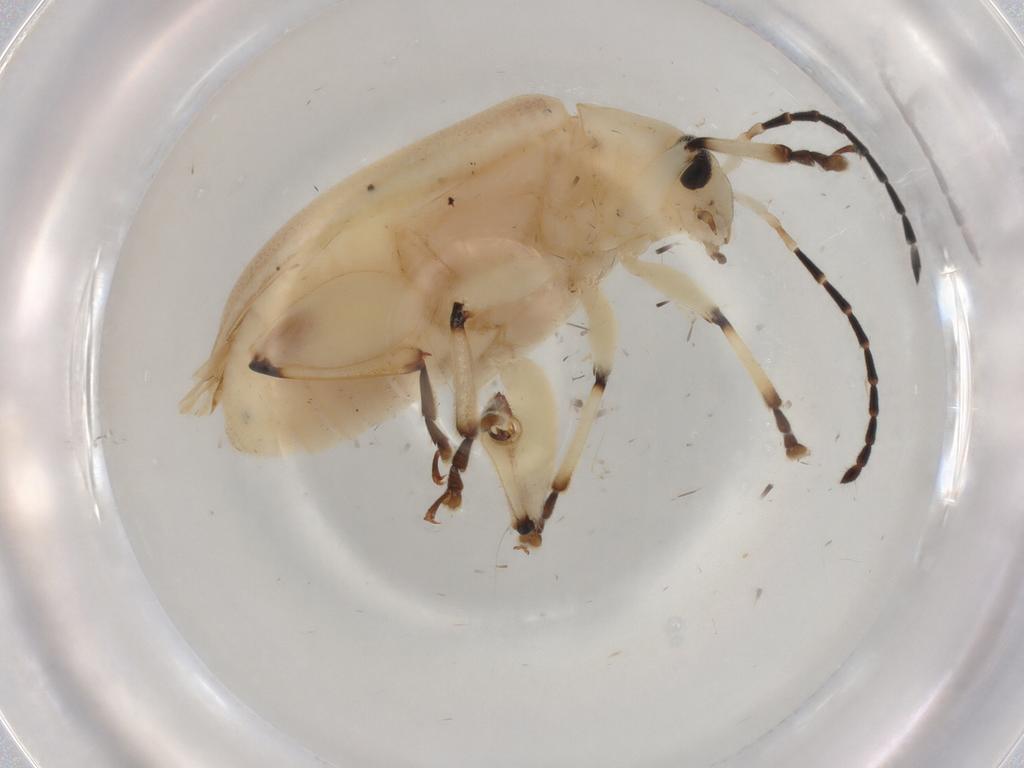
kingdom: Animalia
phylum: Arthropoda
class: Insecta
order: Coleoptera
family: Chrysomelidae
